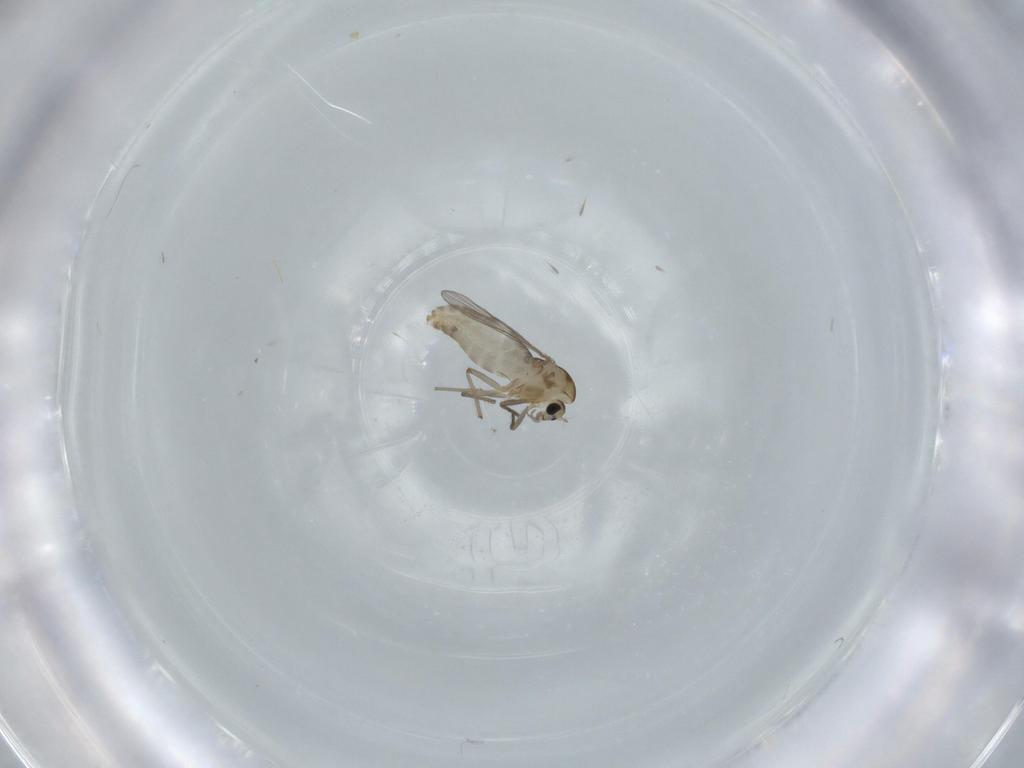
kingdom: Animalia
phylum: Arthropoda
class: Insecta
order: Diptera
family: Chironomidae
